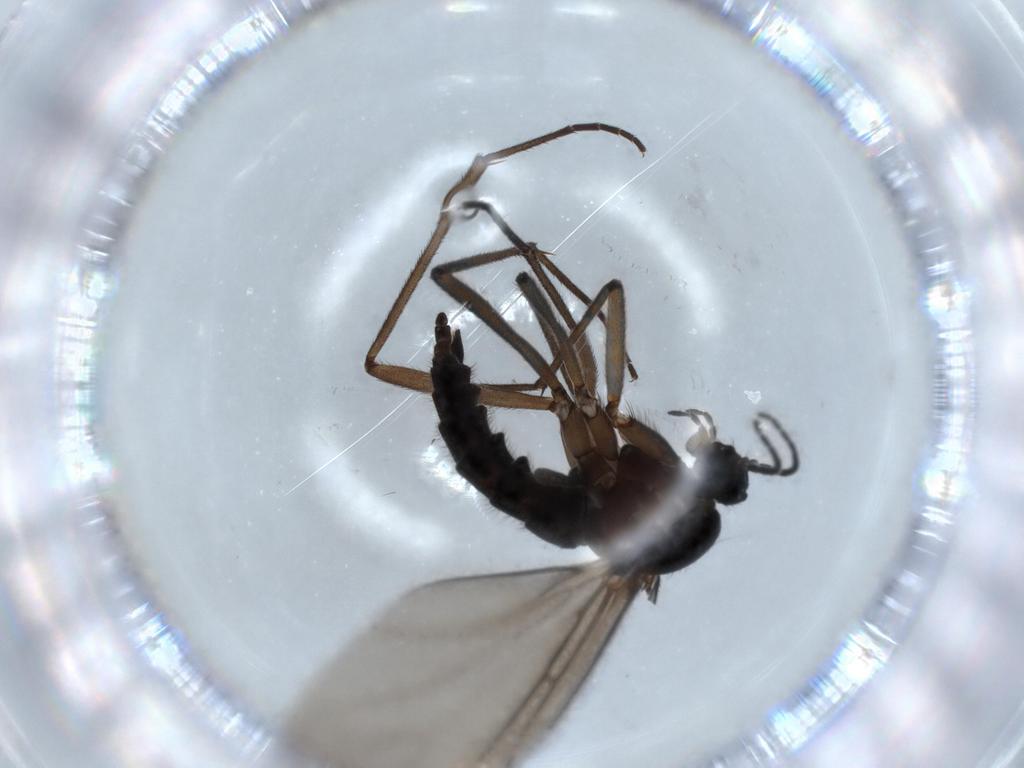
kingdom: Animalia
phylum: Arthropoda
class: Insecta
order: Diptera
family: Sciaridae
